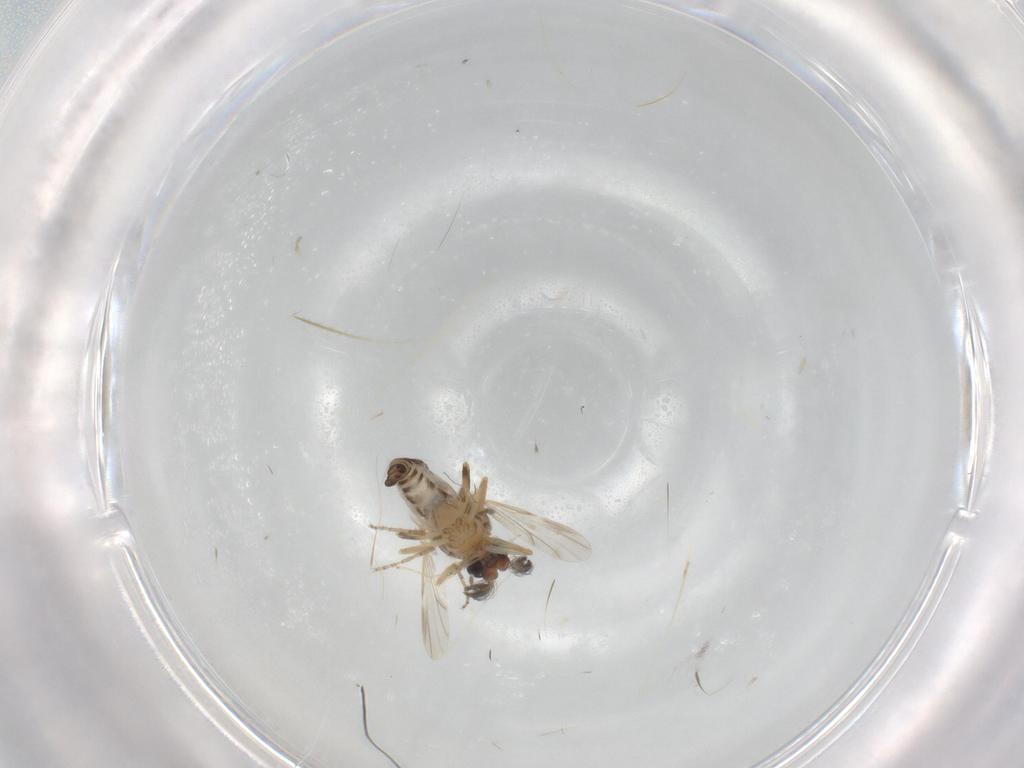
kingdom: Animalia
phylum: Arthropoda
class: Insecta
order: Diptera
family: Ceratopogonidae
